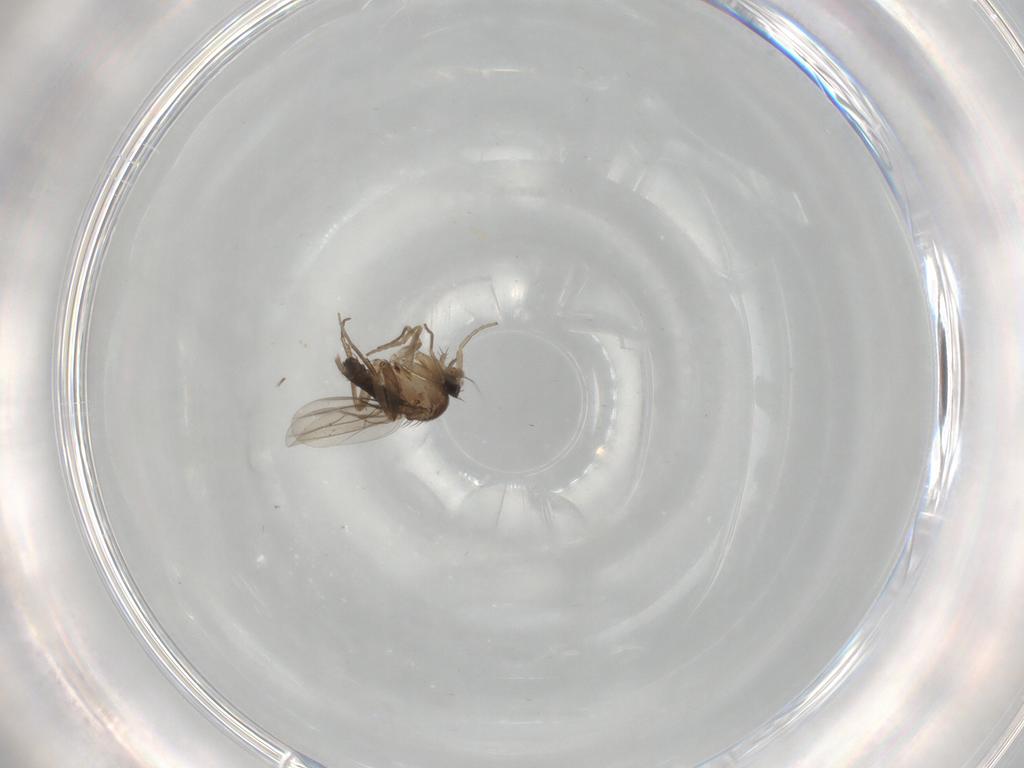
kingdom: Animalia
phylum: Arthropoda
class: Insecta
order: Diptera
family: Phoridae
